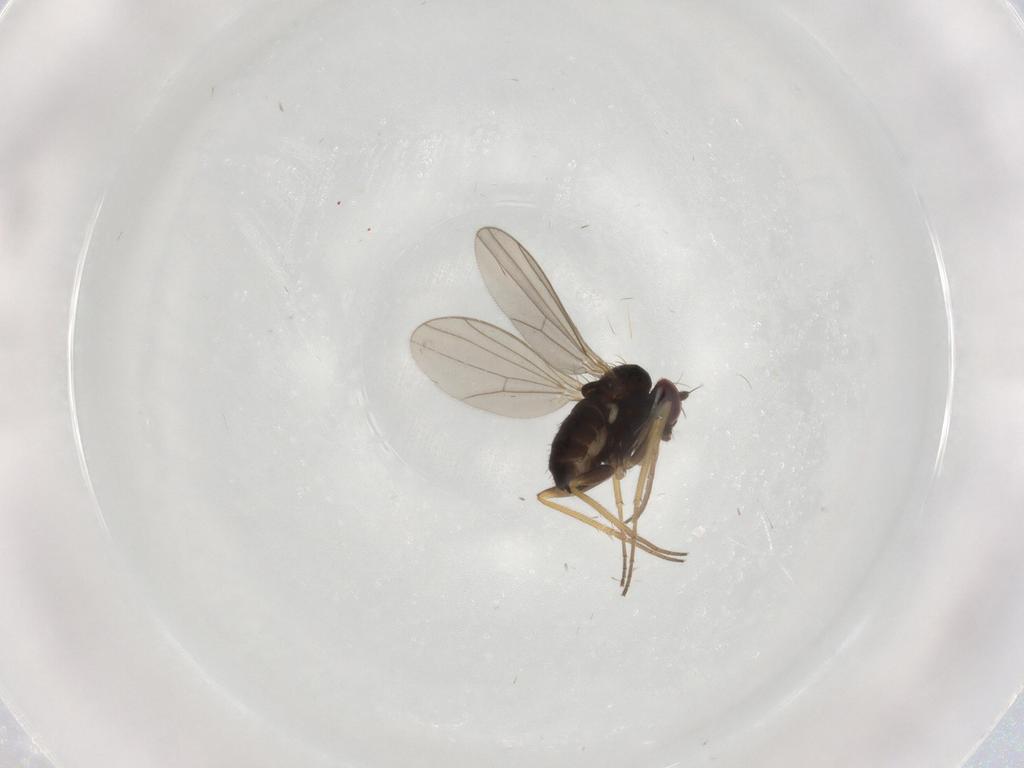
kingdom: Animalia
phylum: Arthropoda
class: Insecta
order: Diptera
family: Dolichopodidae
